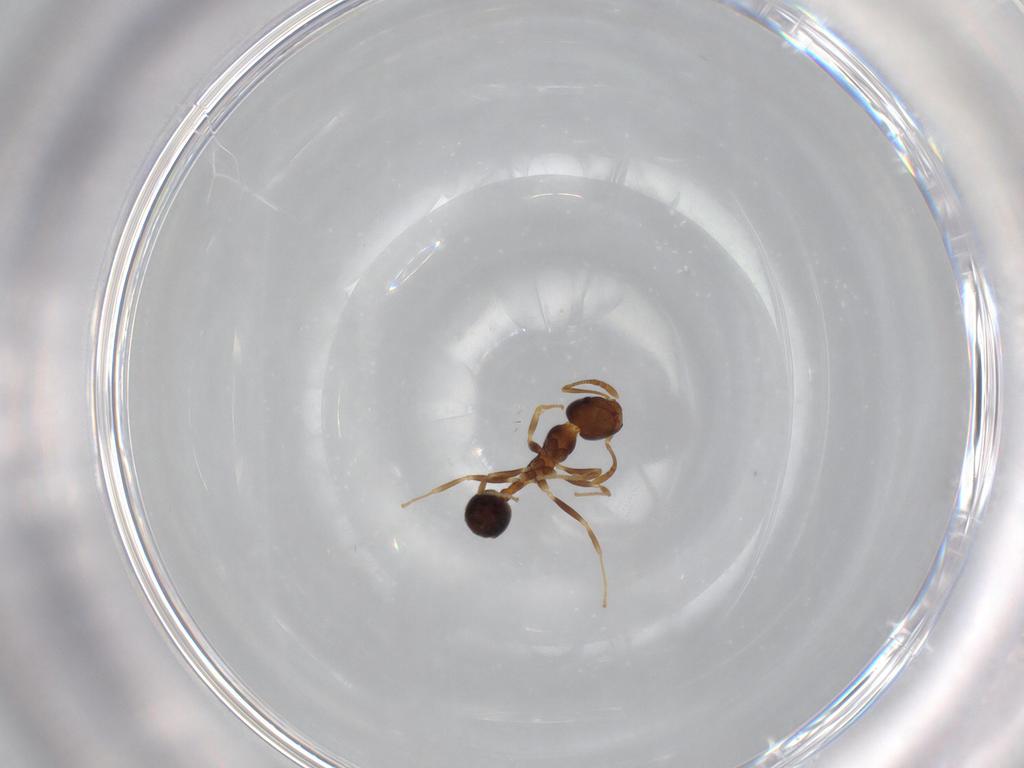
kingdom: Animalia
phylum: Arthropoda
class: Insecta
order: Hymenoptera
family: Formicidae
